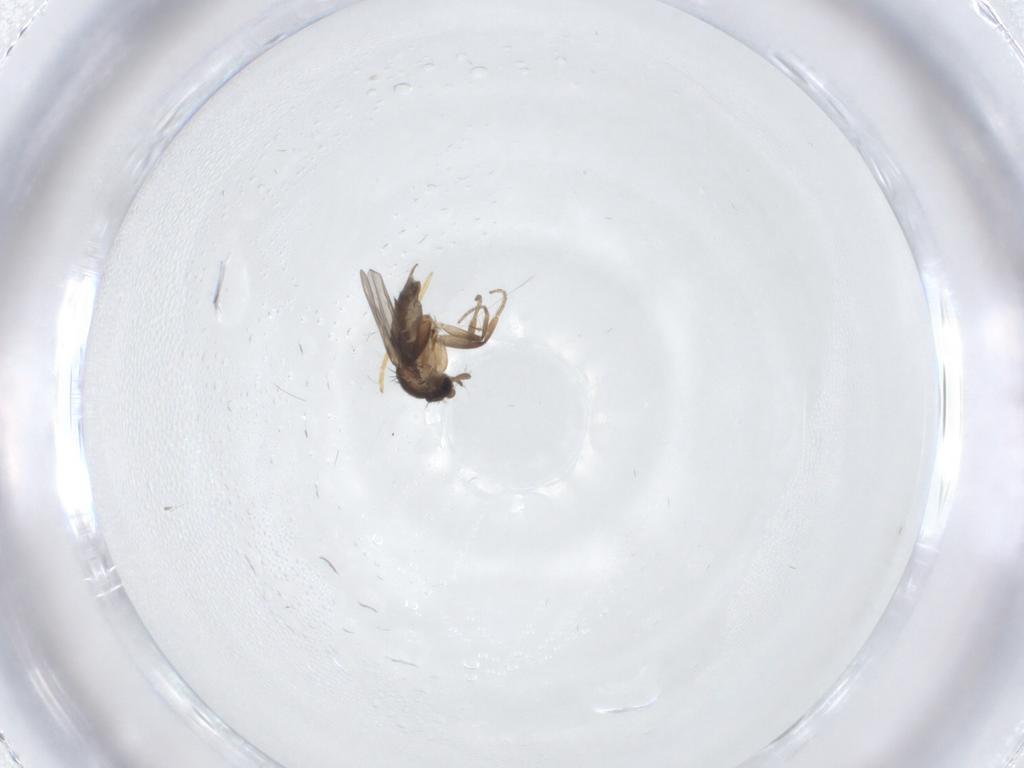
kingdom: Animalia
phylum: Arthropoda
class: Insecta
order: Diptera
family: Chironomidae
